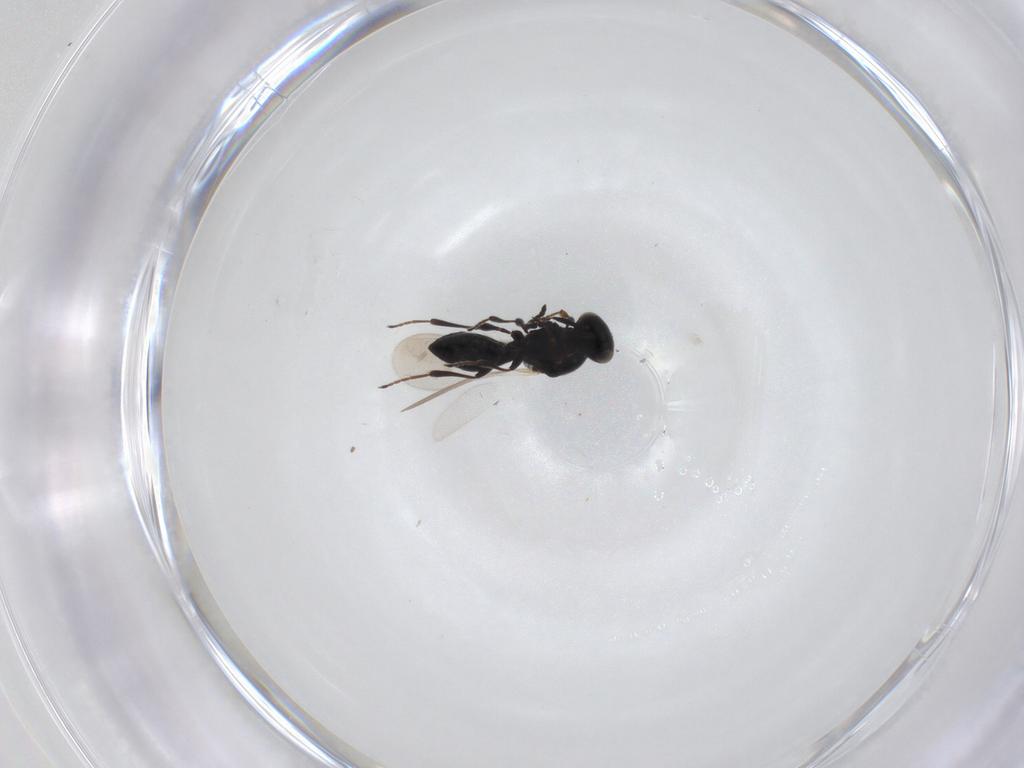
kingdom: Animalia
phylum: Arthropoda
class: Insecta
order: Hymenoptera
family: Platygastridae
